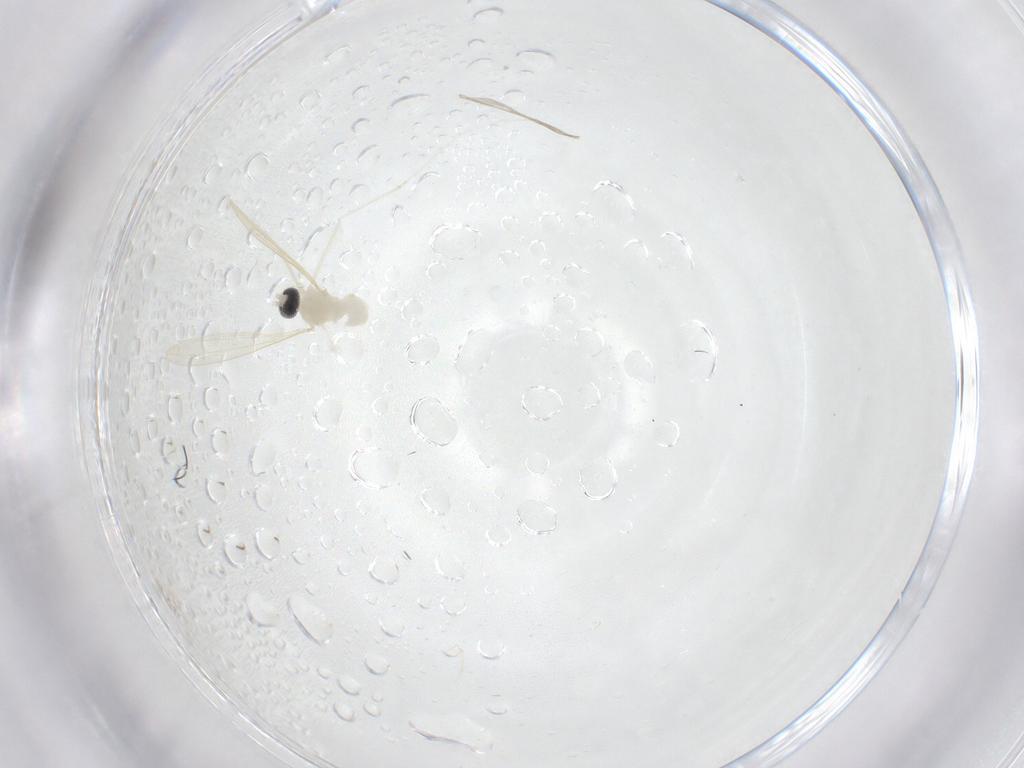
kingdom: Animalia
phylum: Arthropoda
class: Insecta
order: Diptera
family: Cecidomyiidae
